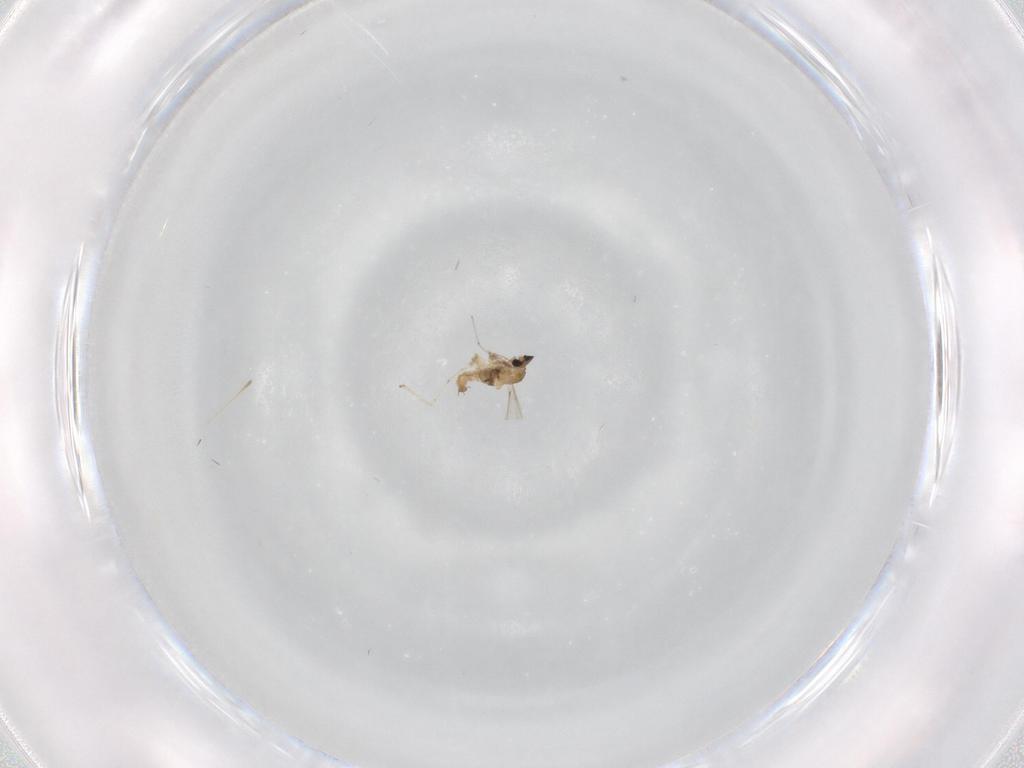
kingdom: Animalia
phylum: Arthropoda
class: Insecta
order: Diptera
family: Cecidomyiidae
